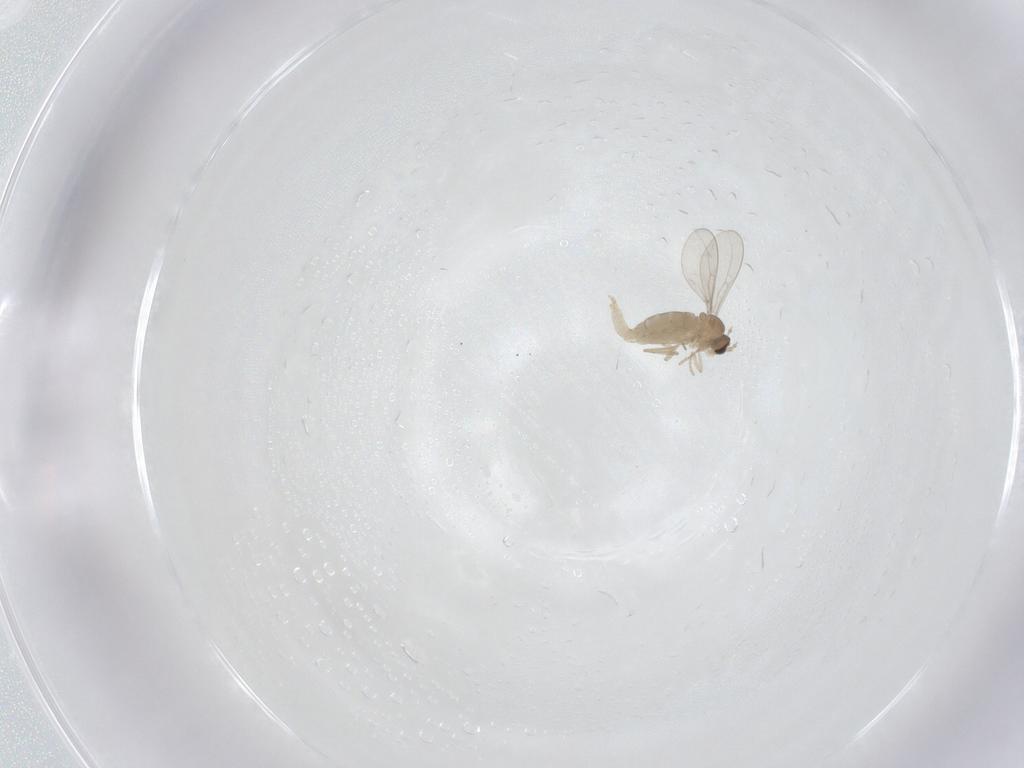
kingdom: Animalia
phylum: Arthropoda
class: Insecta
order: Diptera
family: Cecidomyiidae
